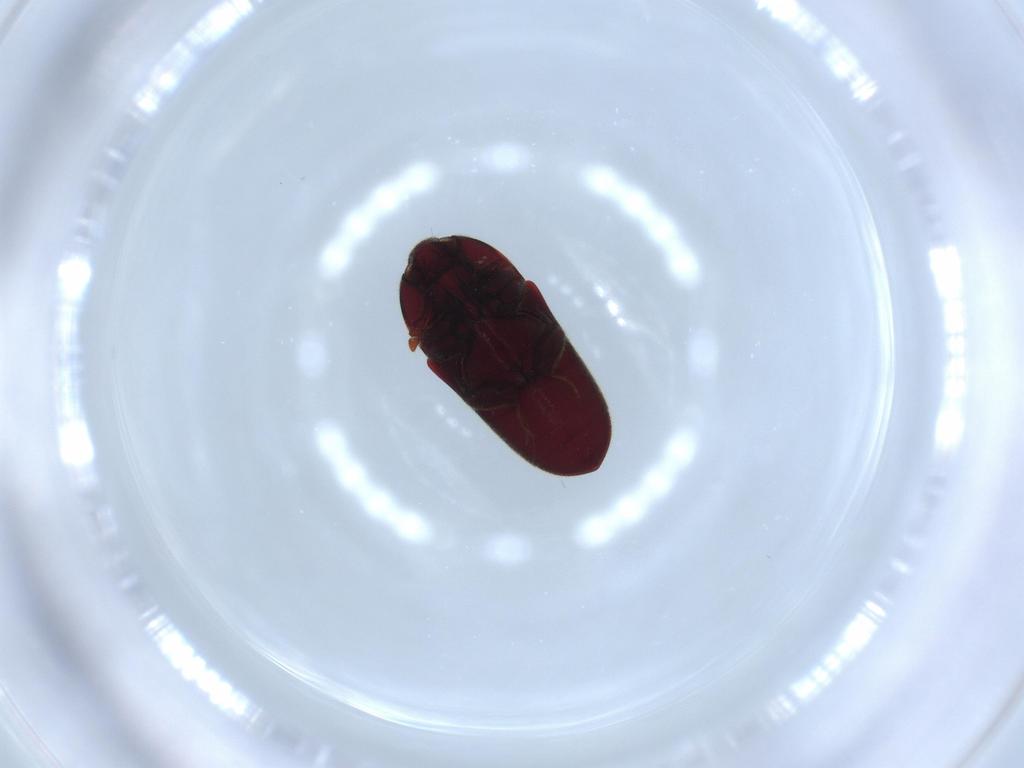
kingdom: Animalia
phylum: Arthropoda
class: Insecta
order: Coleoptera
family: Throscidae
